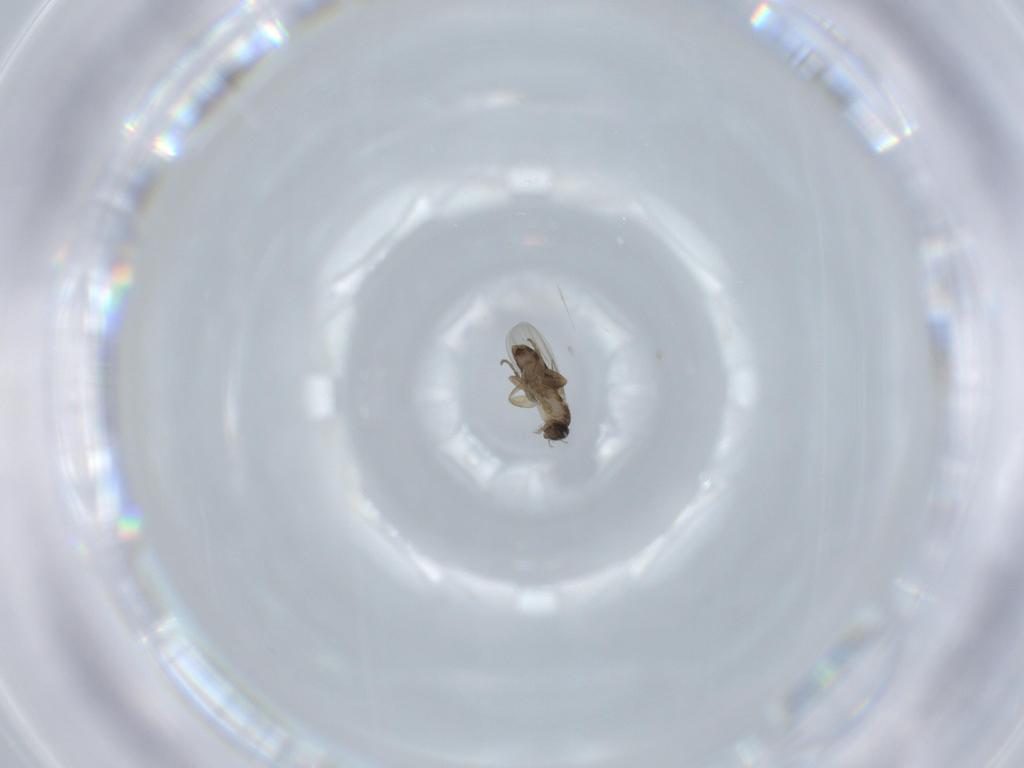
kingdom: Animalia
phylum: Arthropoda
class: Insecta
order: Diptera
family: Phoridae
